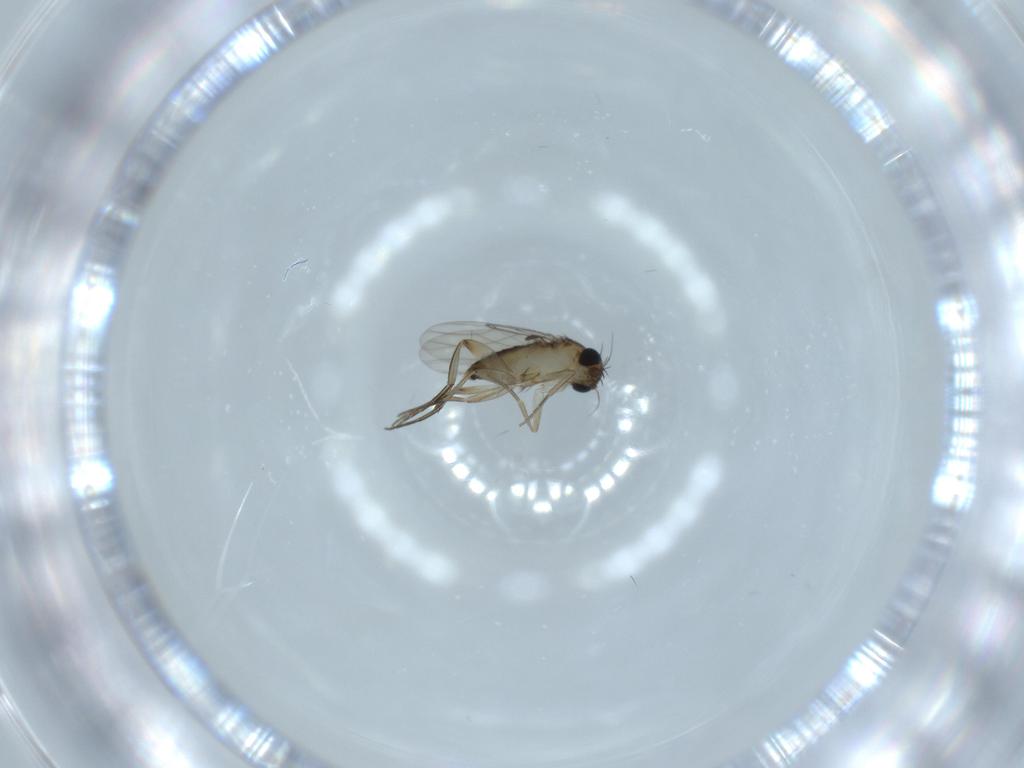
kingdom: Animalia
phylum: Arthropoda
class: Insecta
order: Diptera
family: Phoridae
